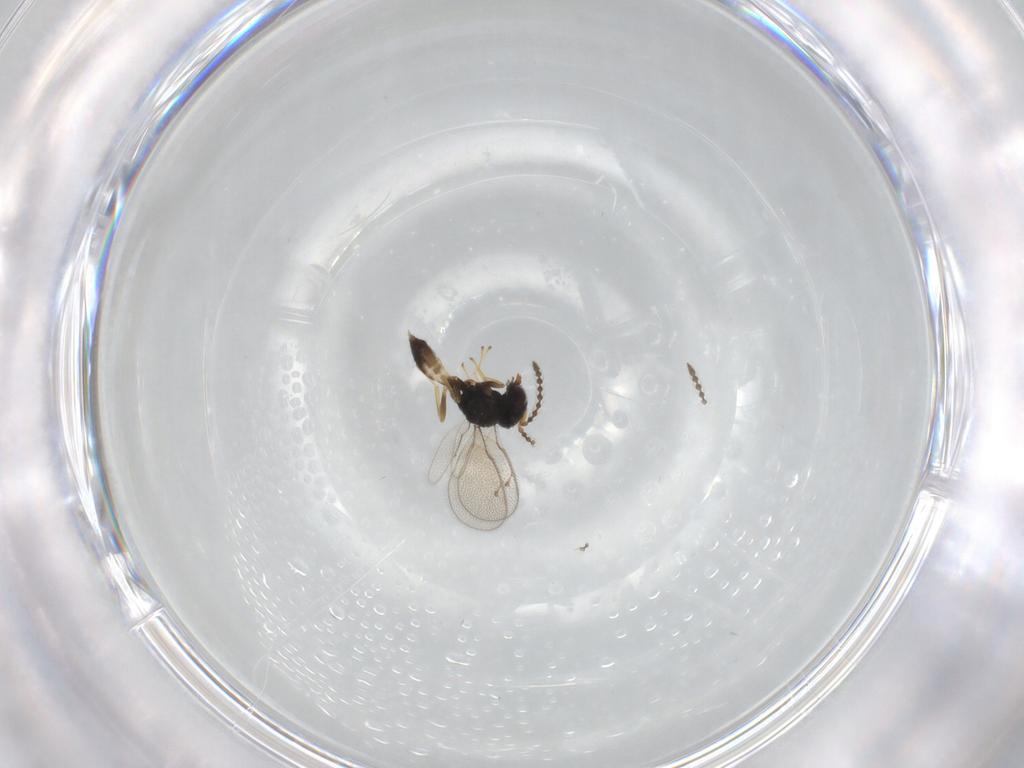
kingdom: Animalia
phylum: Arthropoda
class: Insecta
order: Hymenoptera
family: Pteromalidae
